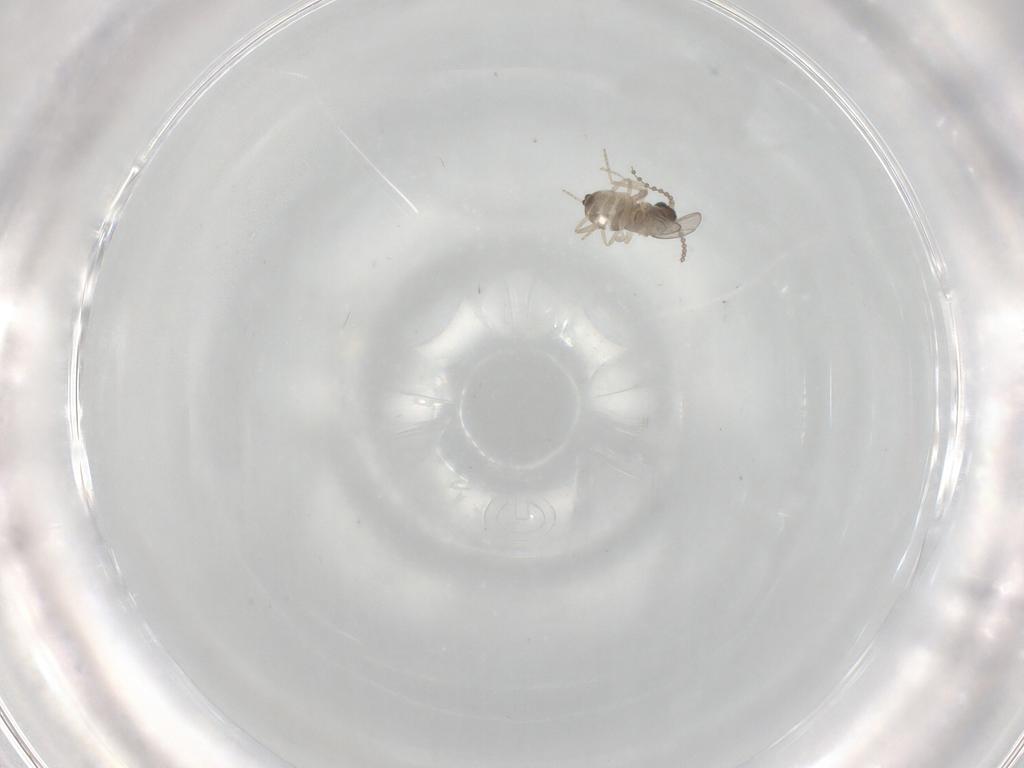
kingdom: Animalia
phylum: Arthropoda
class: Insecta
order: Diptera
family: Cecidomyiidae
